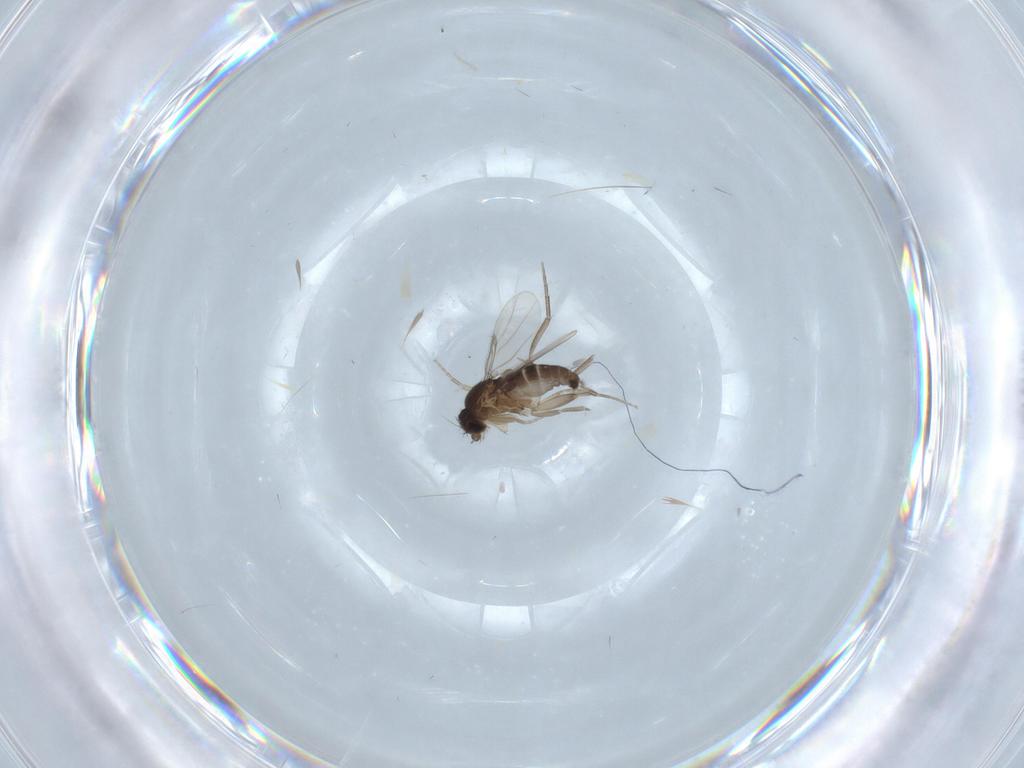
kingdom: Animalia
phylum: Arthropoda
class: Insecta
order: Diptera
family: Phoridae
